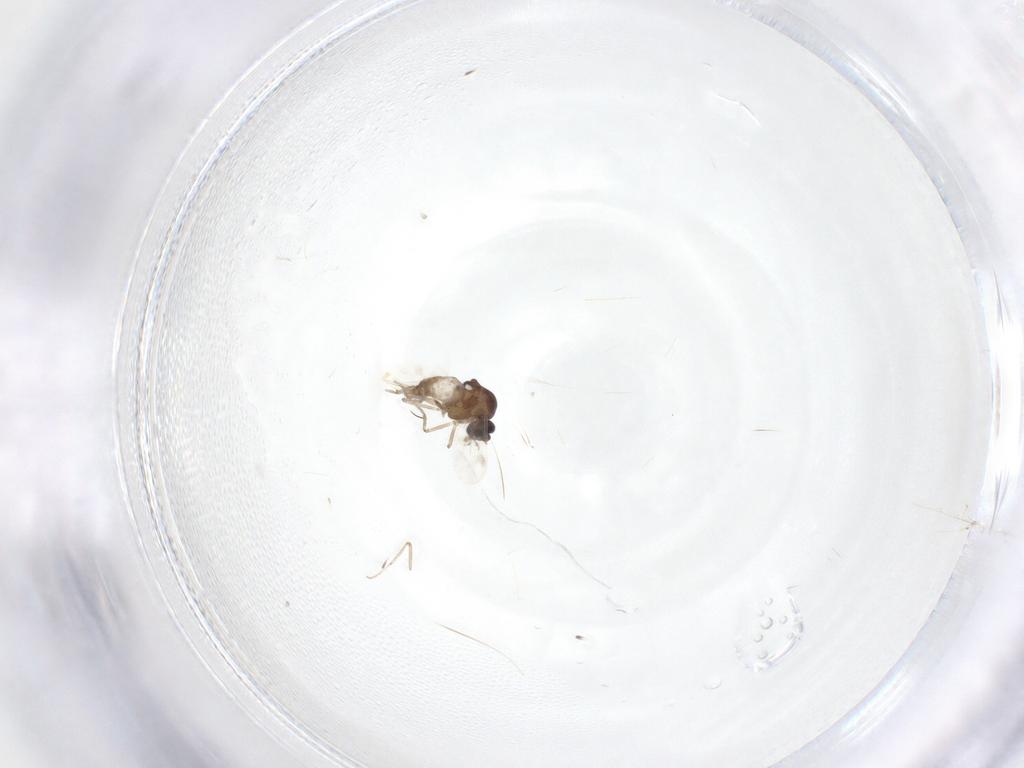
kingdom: Animalia
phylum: Arthropoda
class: Insecta
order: Diptera
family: Ceratopogonidae
